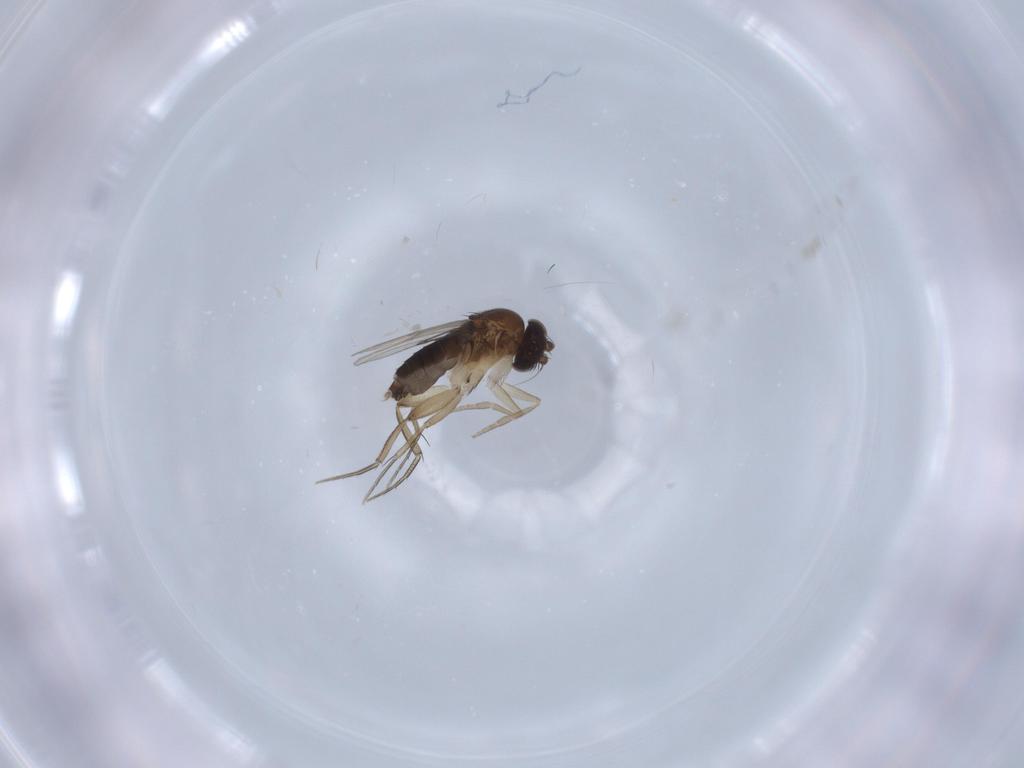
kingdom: Animalia
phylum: Arthropoda
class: Insecta
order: Diptera
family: Phoridae
